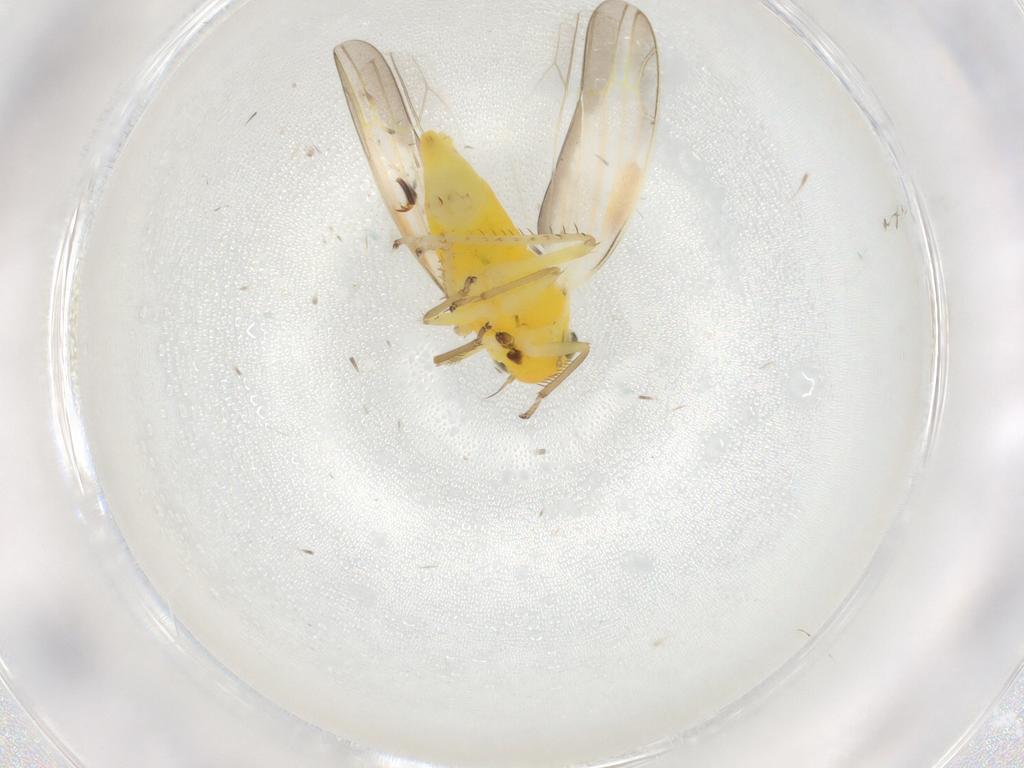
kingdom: Animalia
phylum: Arthropoda
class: Insecta
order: Hemiptera
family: Cicadellidae
